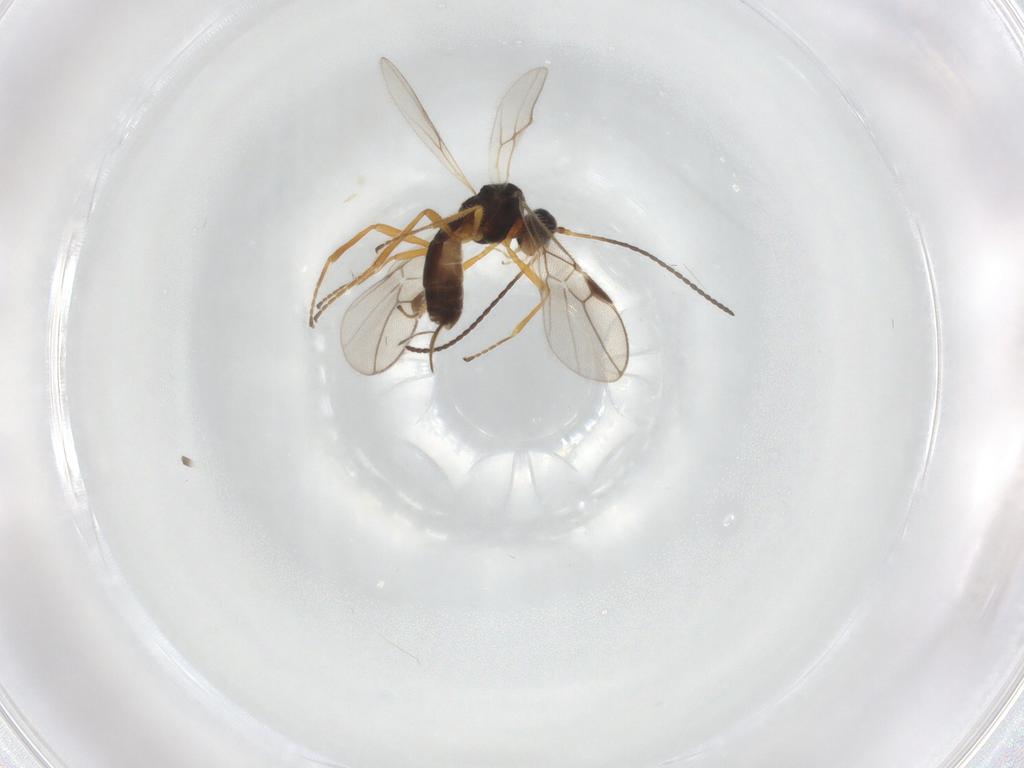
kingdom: Animalia
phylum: Arthropoda
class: Insecta
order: Hymenoptera
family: Braconidae
